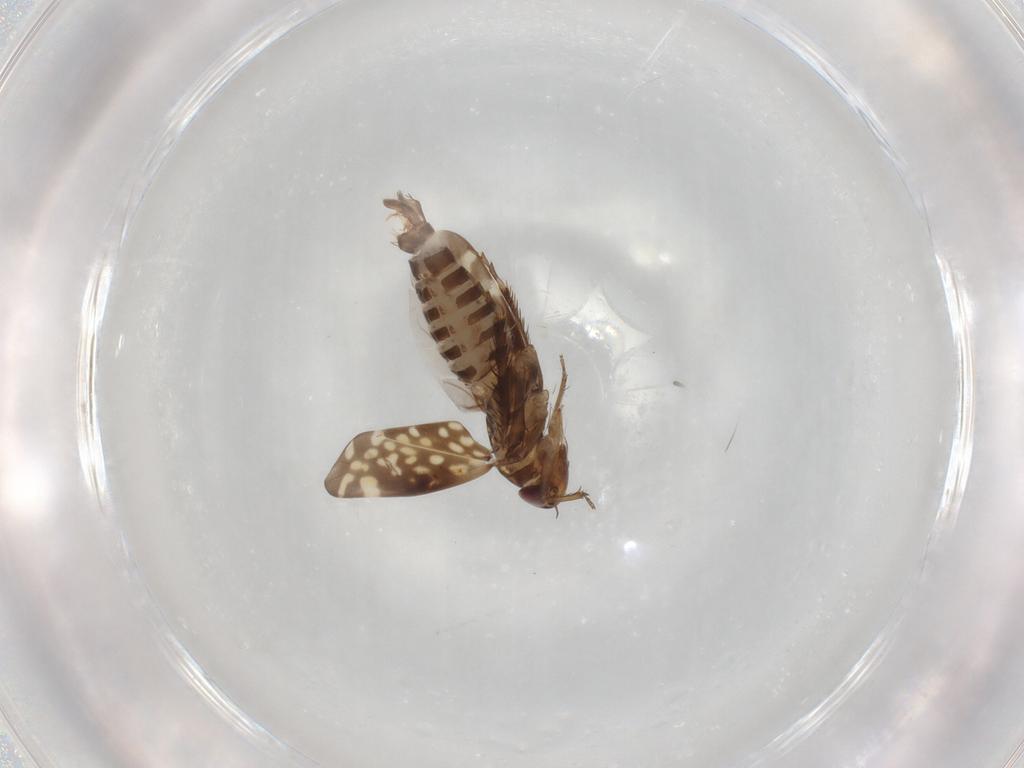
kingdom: Animalia
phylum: Arthropoda
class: Insecta
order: Hemiptera
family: Cicadellidae
